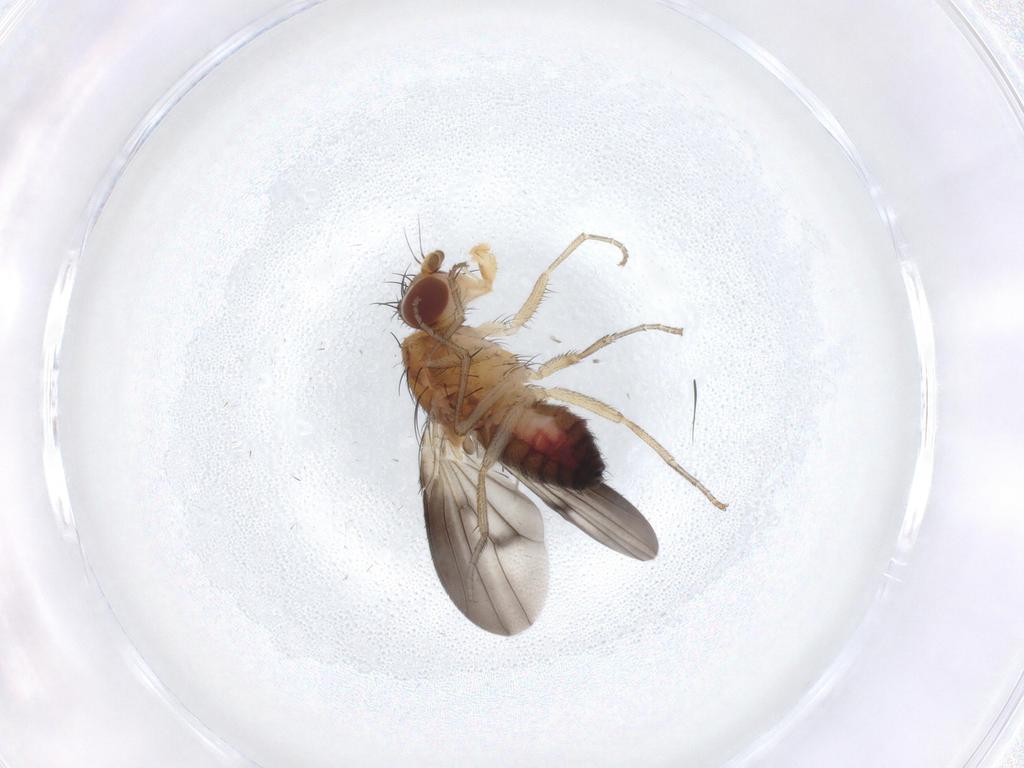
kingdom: Animalia
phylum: Arthropoda
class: Insecta
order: Diptera
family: Heleomyzidae
